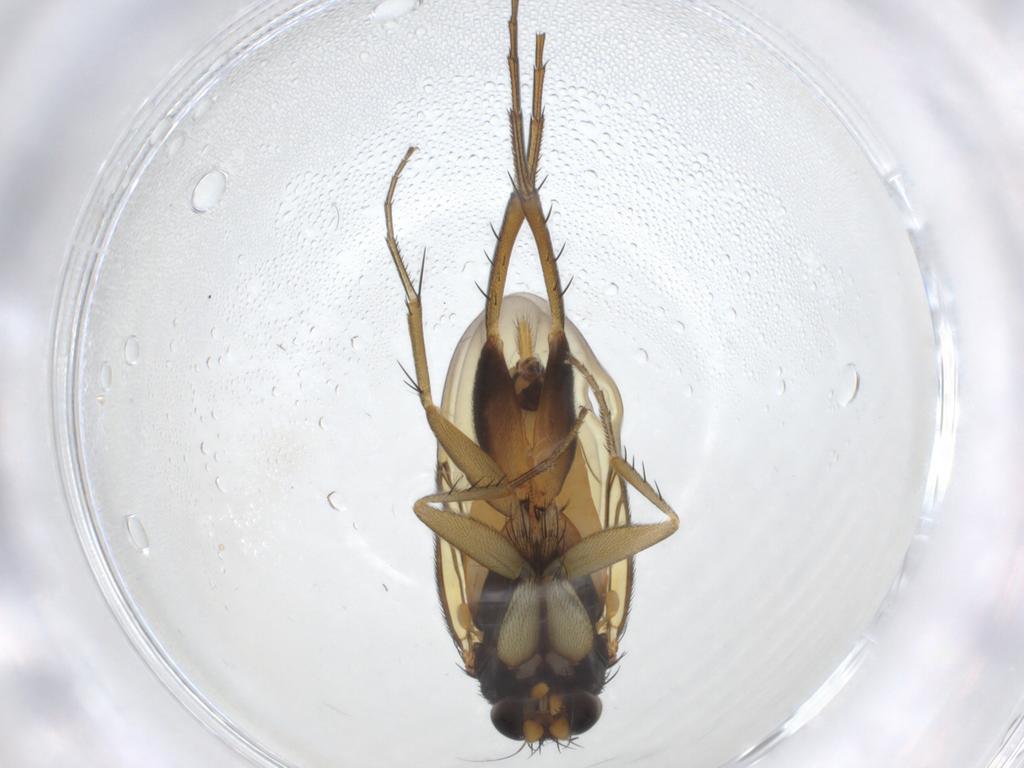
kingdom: Animalia
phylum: Arthropoda
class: Insecta
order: Diptera
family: Phoridae
